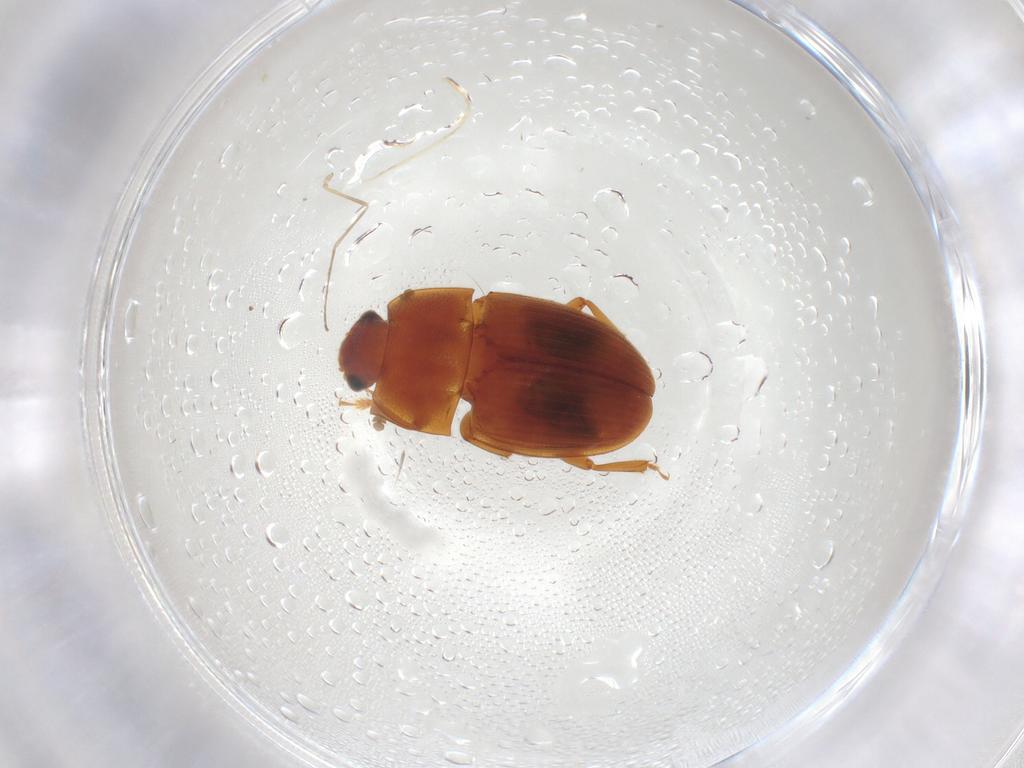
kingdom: Animalia
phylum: Arthropoda
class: Insecta
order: Coleoptera
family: Nitidulidae
